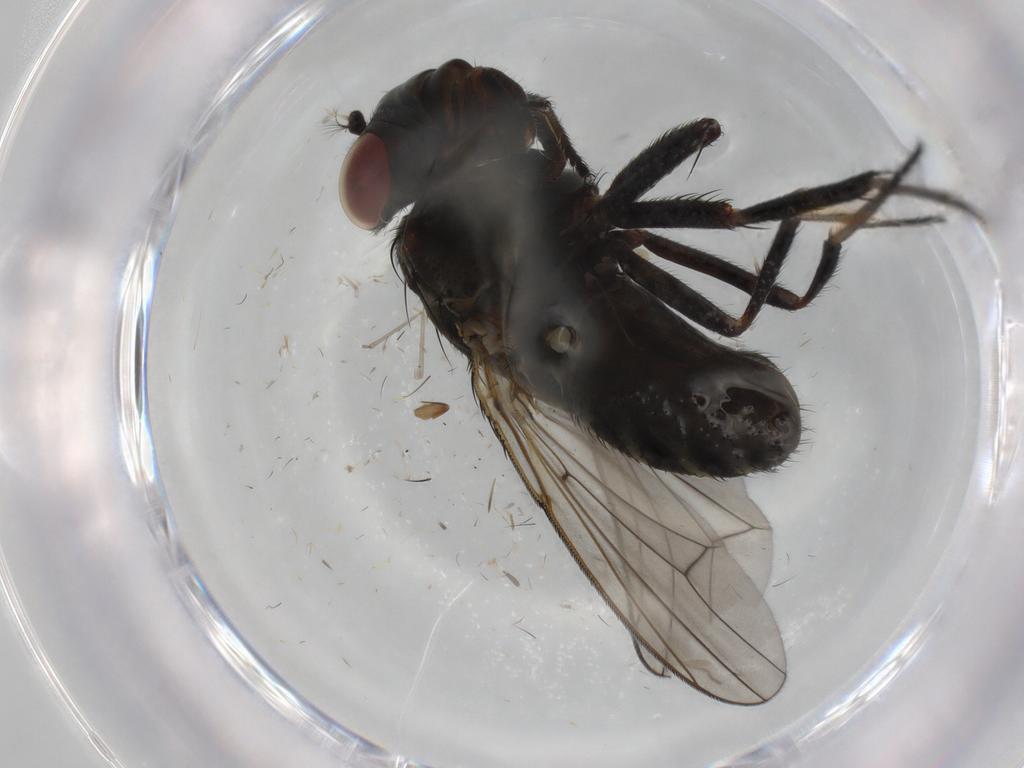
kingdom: Animalia
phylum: Arthropoda
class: Insecta
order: Diptera
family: Ephydridae
